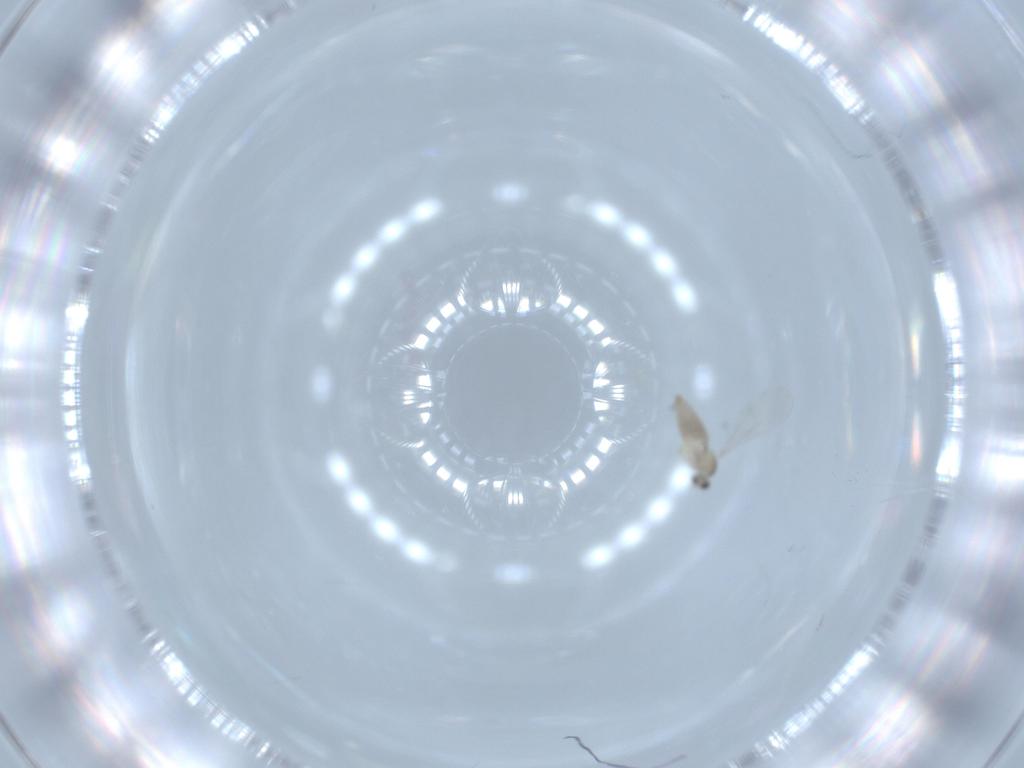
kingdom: Animalia
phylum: Arthropoda
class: Insecta
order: Diptera
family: Cecidomyiidae
